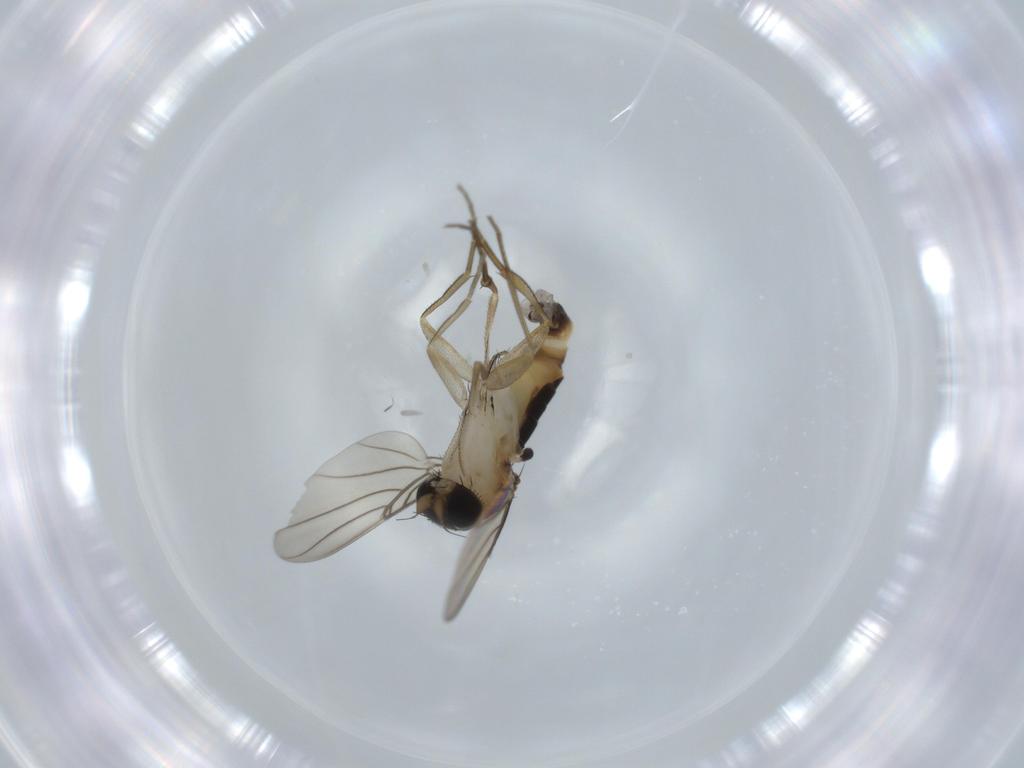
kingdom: Animalia
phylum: Arthropoda
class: Insecta
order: Diptera
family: Phoridae
